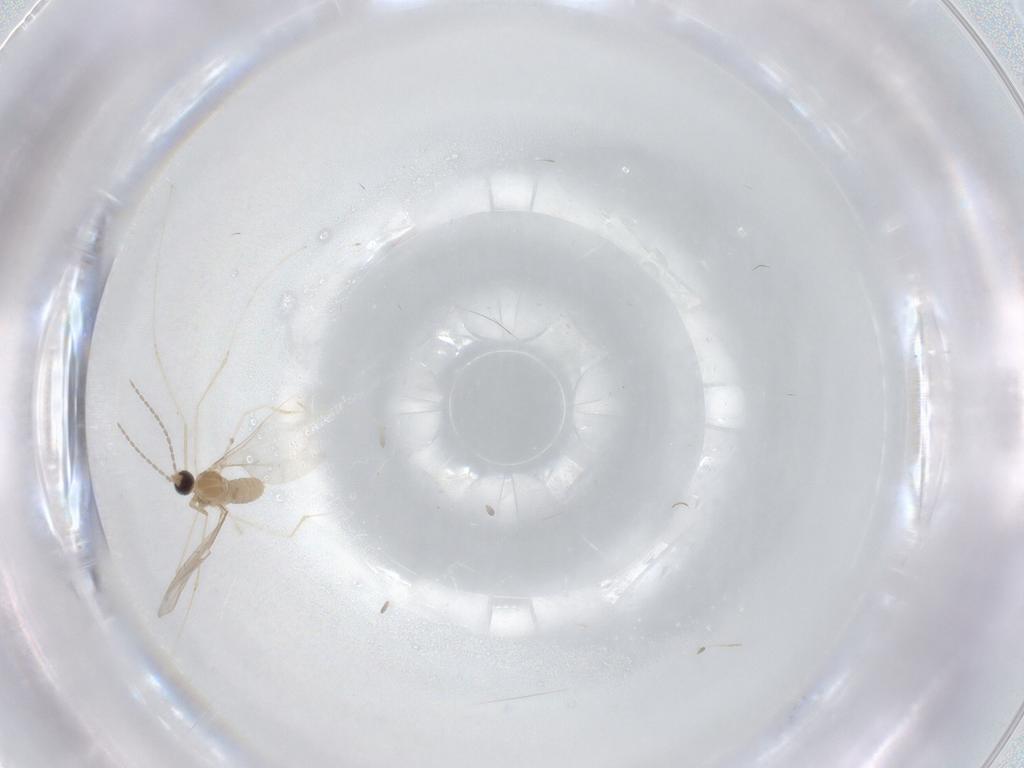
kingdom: Animalia
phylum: Arthropoda
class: Insecta
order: Diptera
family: Cecidomyiidae
